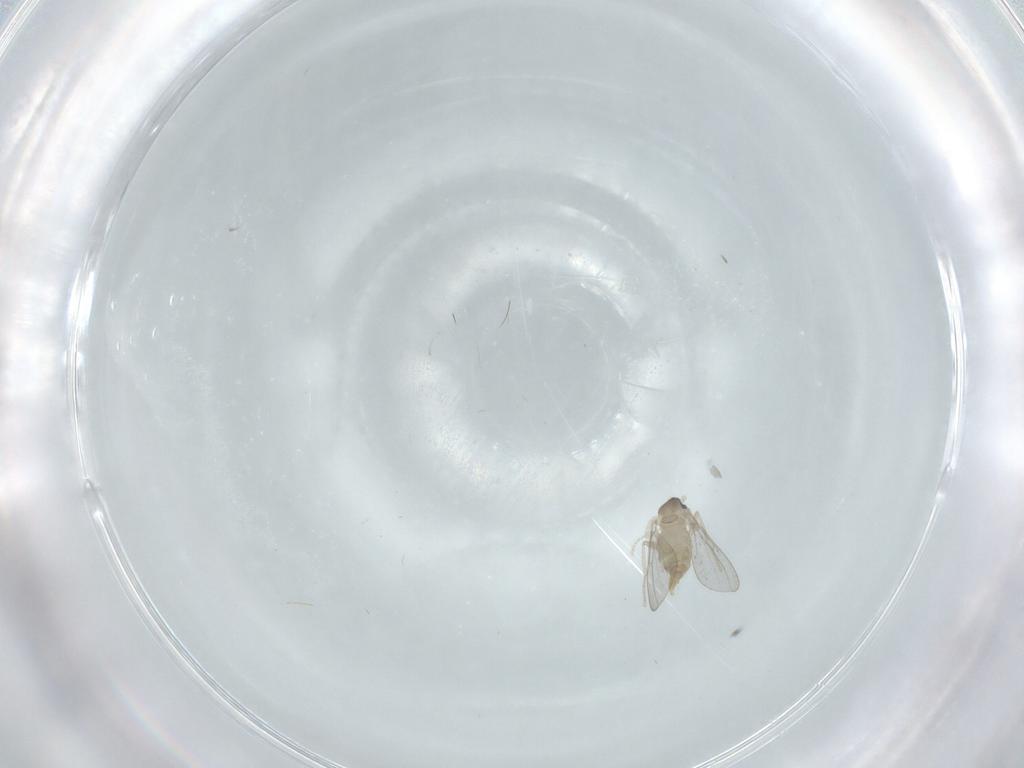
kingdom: Animalia
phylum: Arthropoda
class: Insecta
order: Diptera
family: Cecidomyiidae
